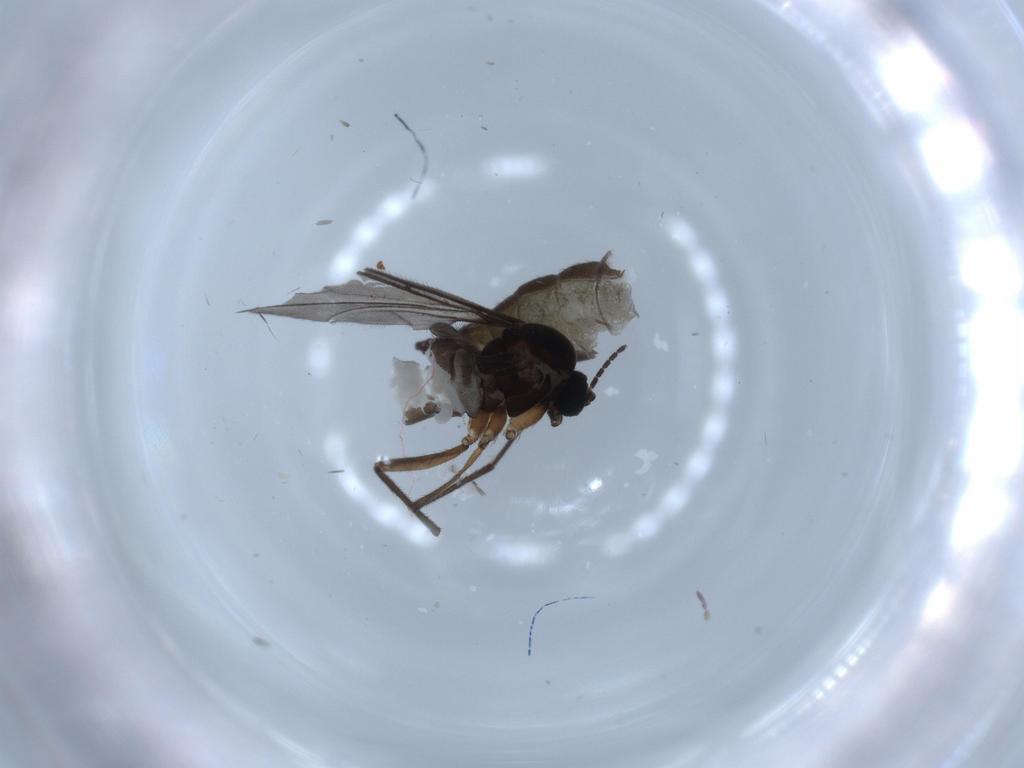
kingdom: Animalia
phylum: Arthropoda
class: Insecta
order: Diptera
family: Sciaridae
